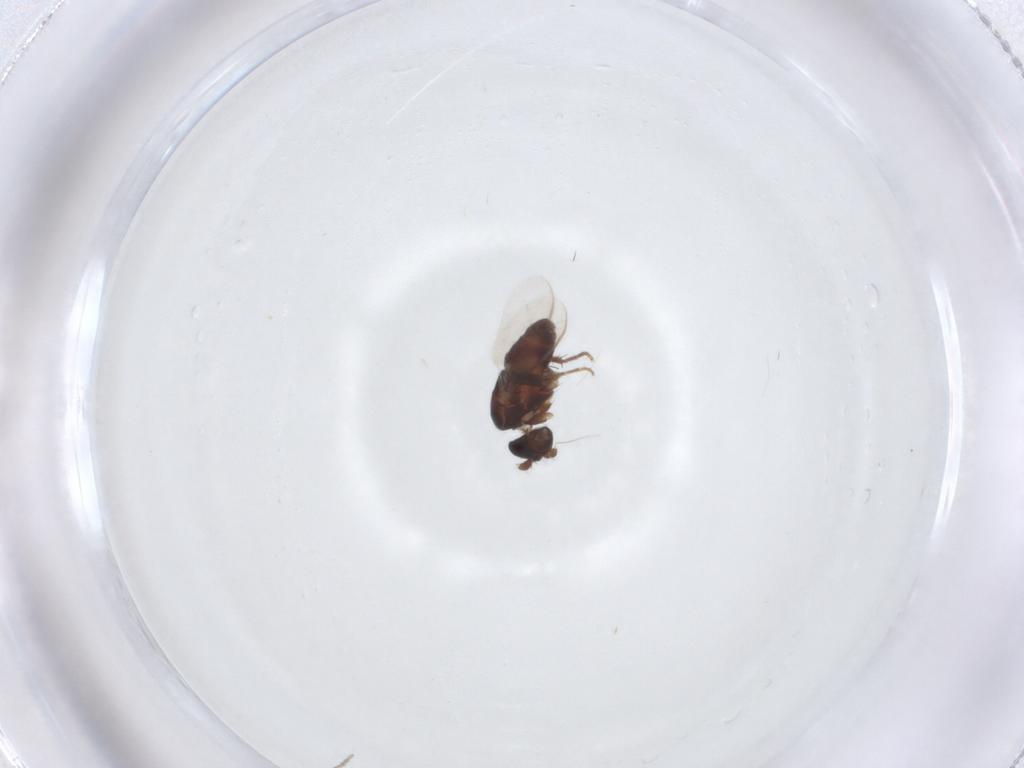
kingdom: Animalia
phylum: Arthropoda
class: Insecta
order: Diptera
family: Sphaeroceridae
